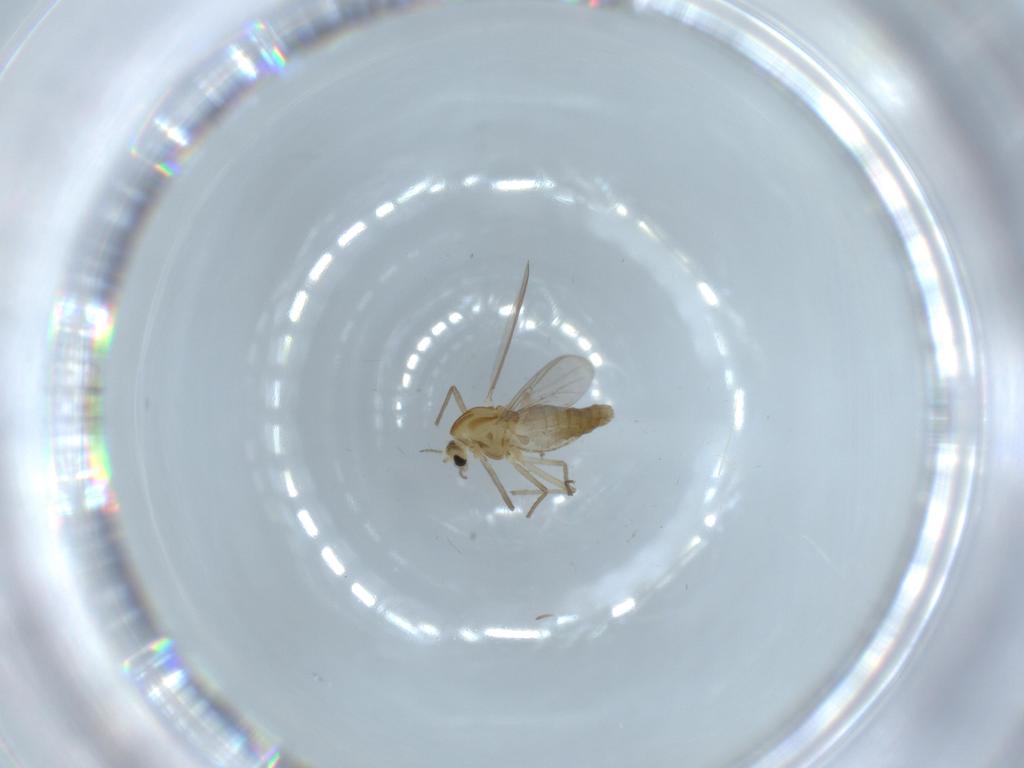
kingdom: Animalia
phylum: Arthropoda
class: Insecta
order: Diptera
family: Chironomidae
